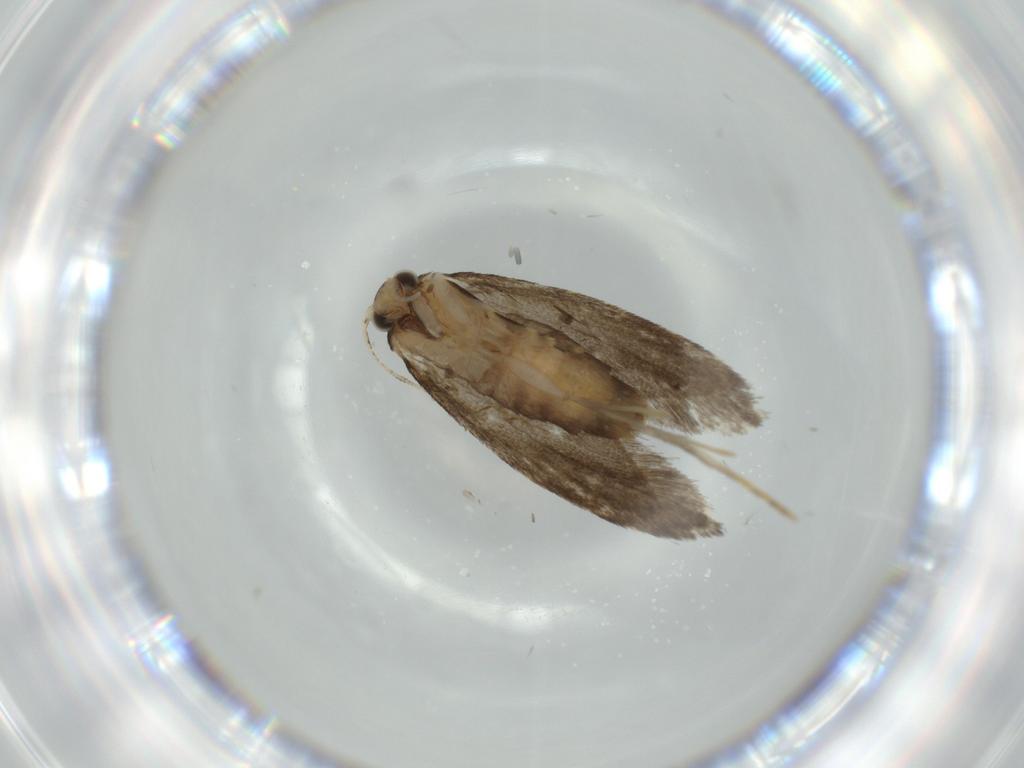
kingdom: Animalia
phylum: Arthropoda
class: Insecta
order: Lepidoptera
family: Tineidae
